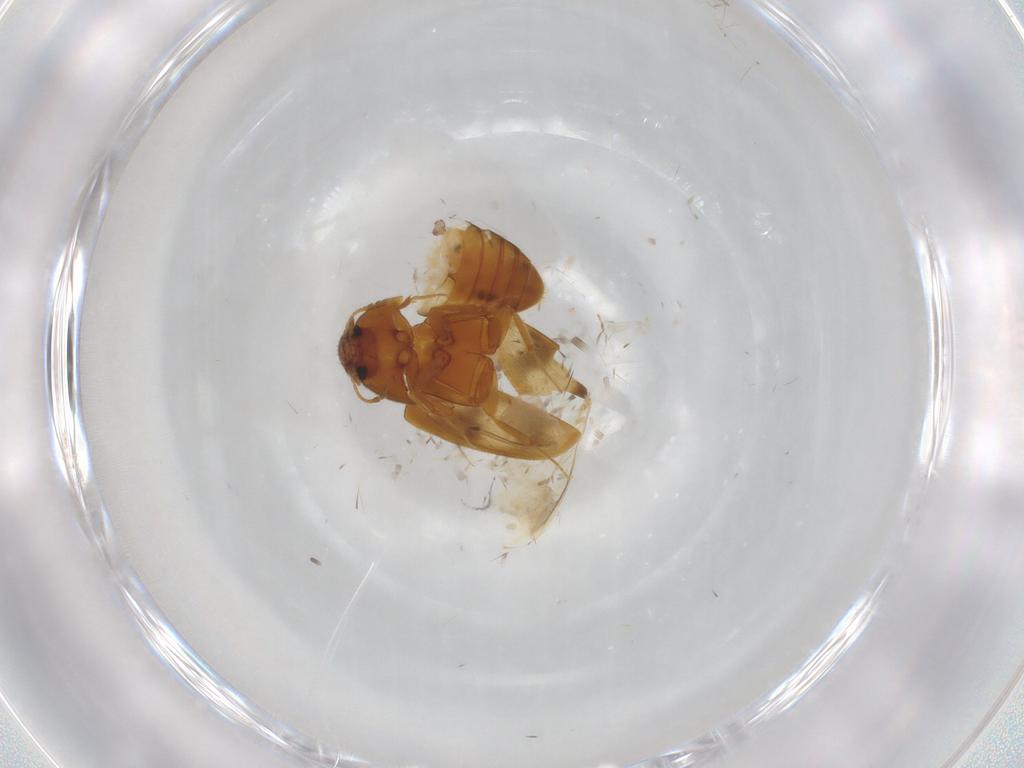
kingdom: Animalia
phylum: Arthropoda
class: Insecta
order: Coleoptera
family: Mycetophagidae
